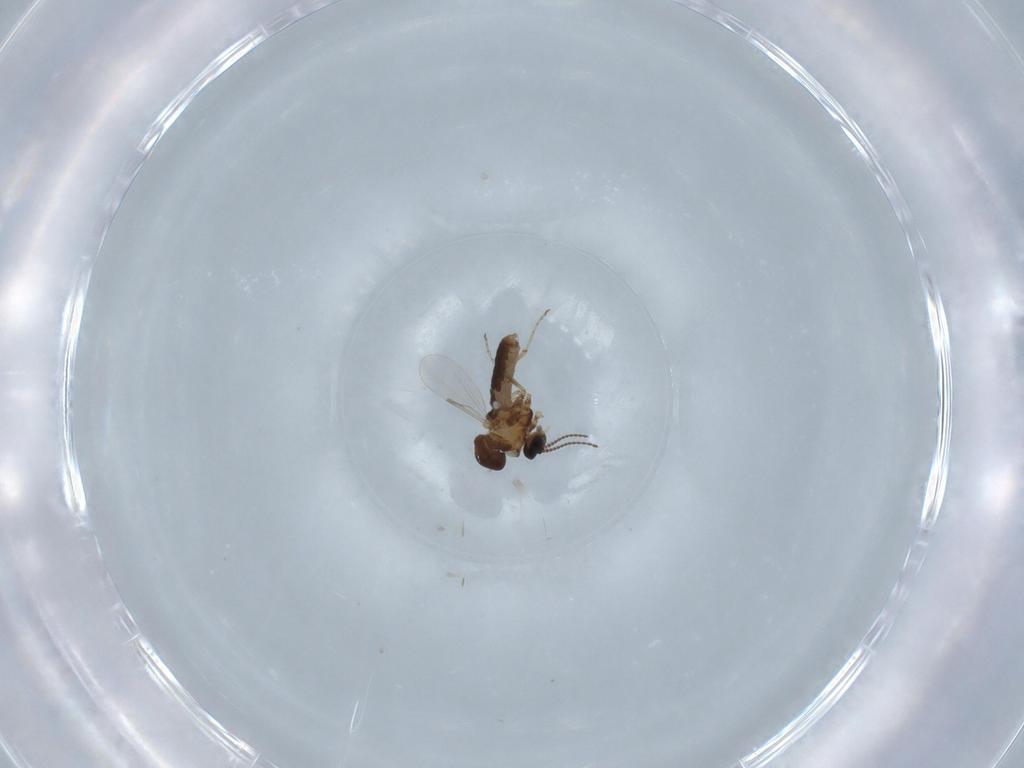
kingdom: Animalia
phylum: Arthropoda
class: Insecta
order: Diptera
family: Ceratopogonidae
